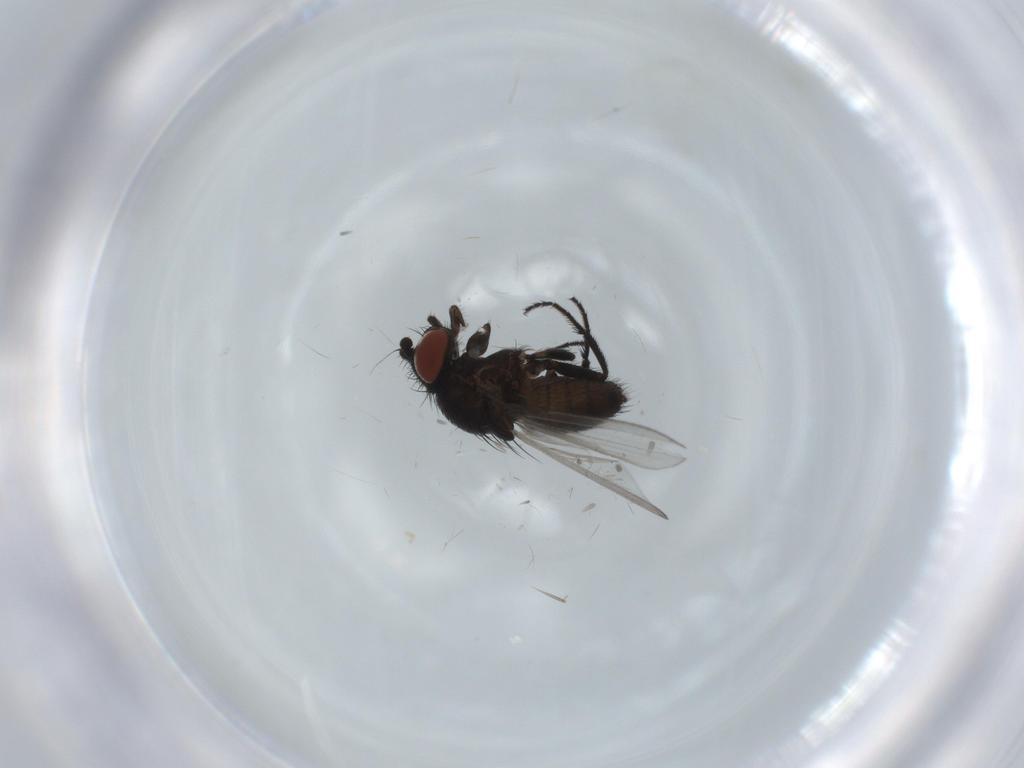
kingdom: Animalia
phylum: Arthropoda
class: Insecta
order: Diptera
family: Milichiidae
